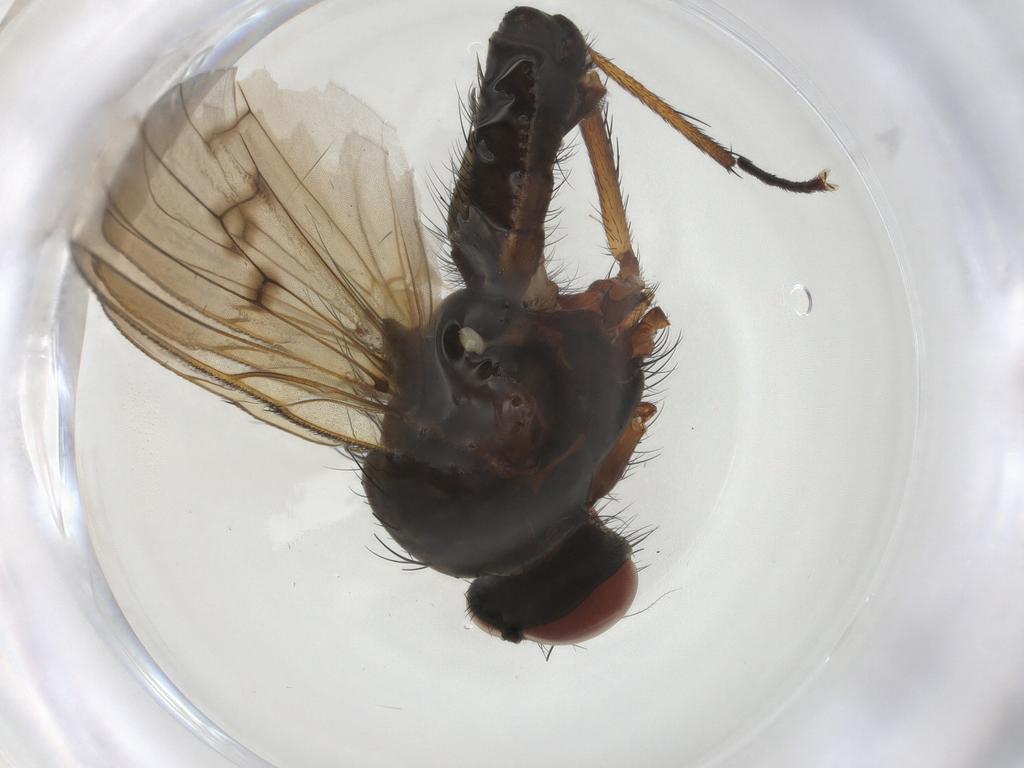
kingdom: Animalia
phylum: Arthropoda
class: Insecta
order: Diptera
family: Anthomyiidae
